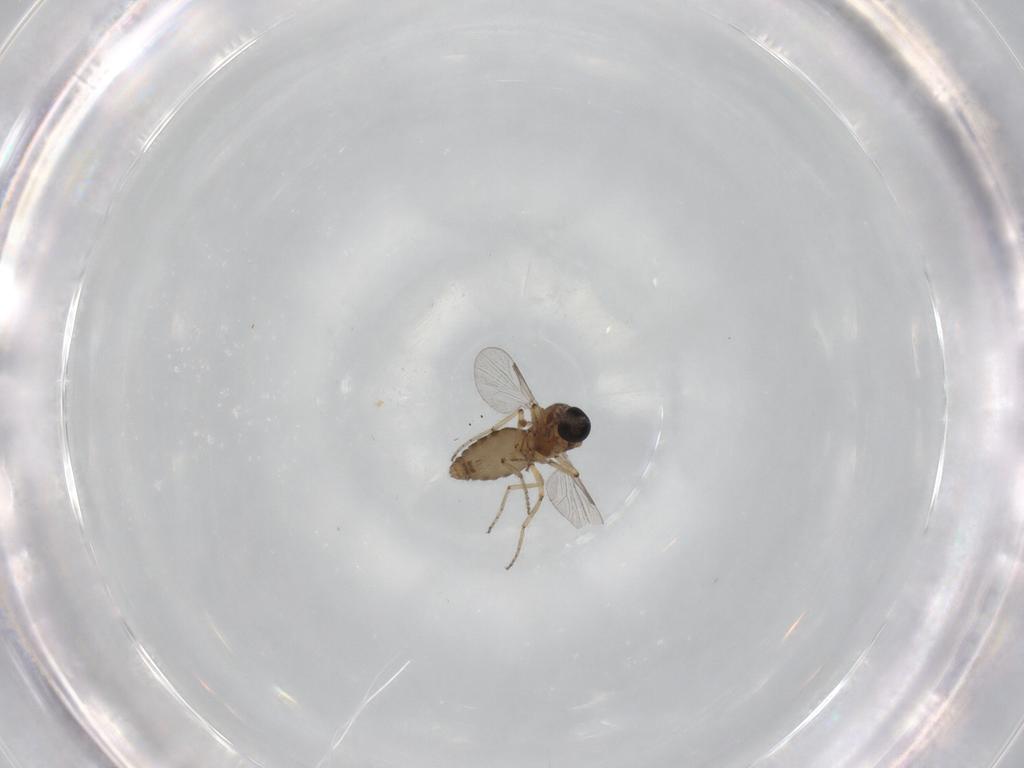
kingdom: Animalia
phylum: Arthropoda
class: Insecta
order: Diptera
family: Ceratopogonidae
